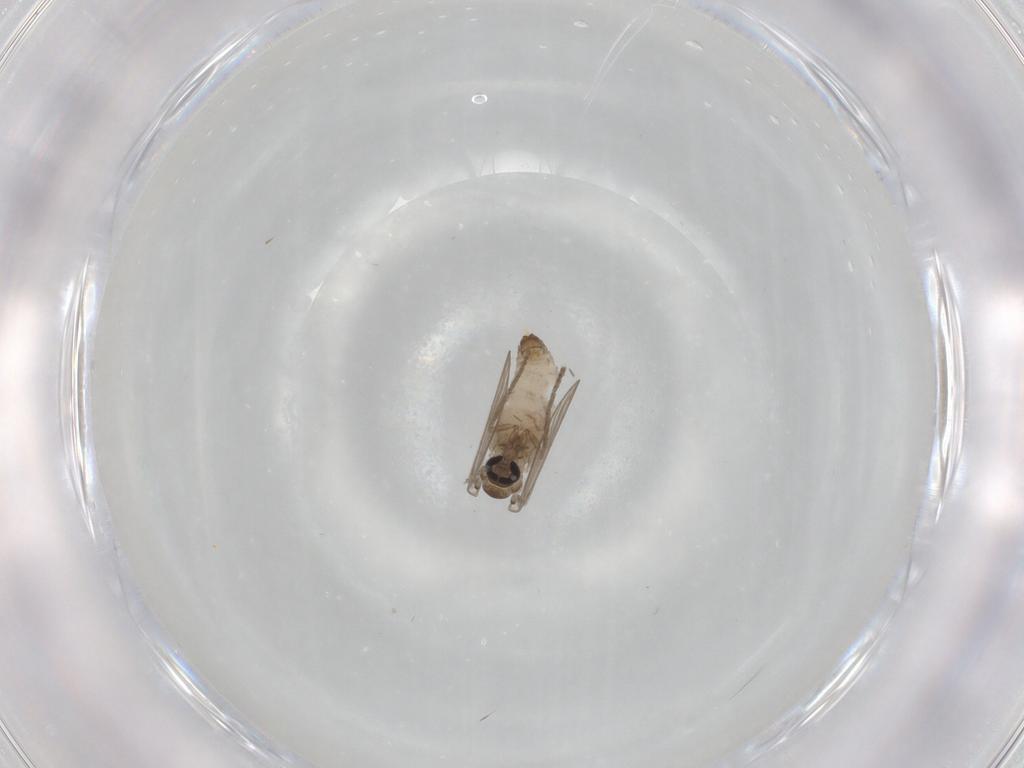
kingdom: Animalia
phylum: Arthropoda
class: Insecta
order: Diptera
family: Psychodidae
